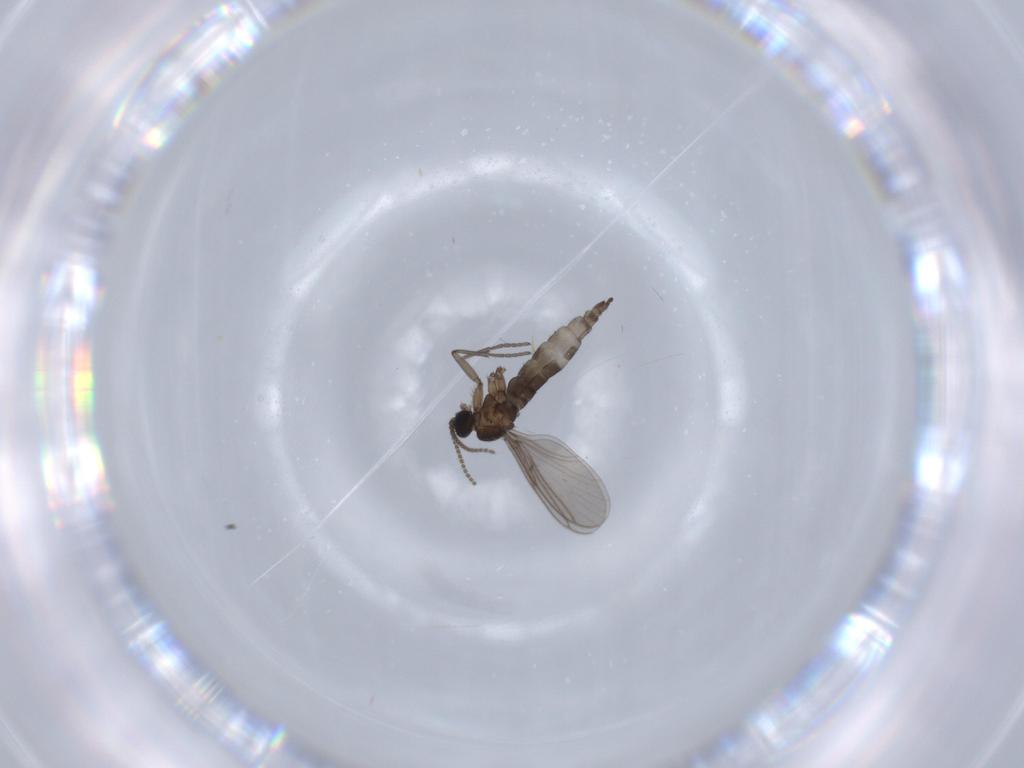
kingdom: Animalia
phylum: Arthropoda
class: Insecta
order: Diptera
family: Chironomidae
